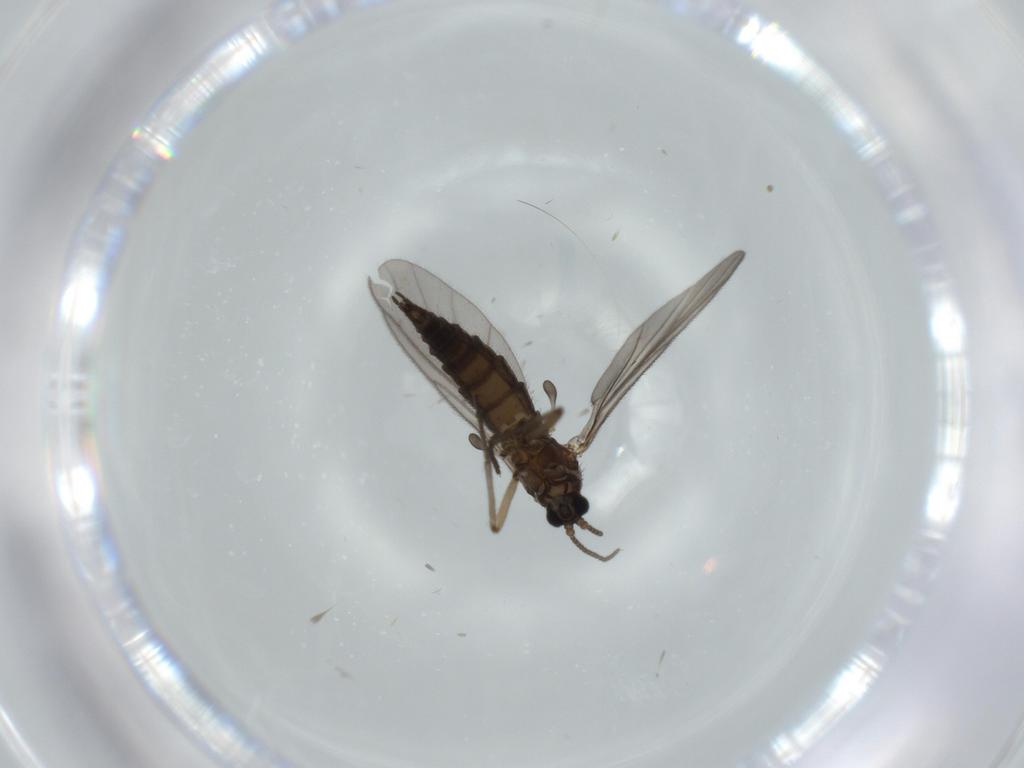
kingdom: Animalia
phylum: Arthropoda
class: Insecta
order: Diptera
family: Sciaridae
